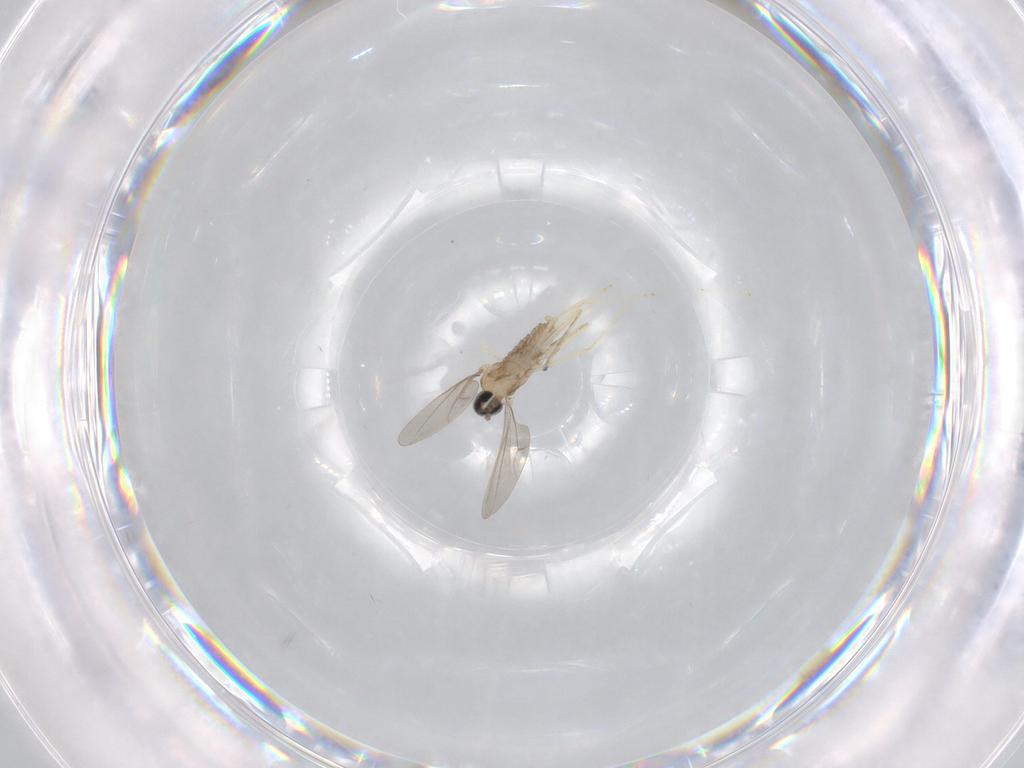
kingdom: Animalia
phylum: Arthropoda
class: Insecta
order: Diptera
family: Cecidomyiidae
